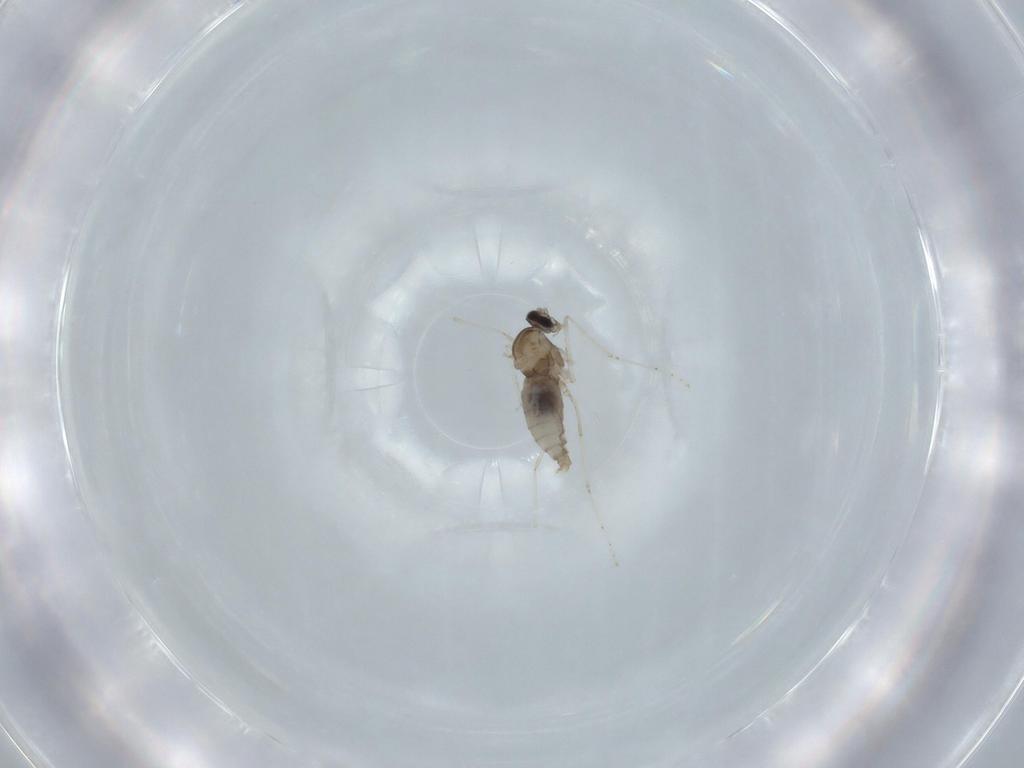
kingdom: Animalia
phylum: Arthropoda
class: Insecta
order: Diptera
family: Cecidomyiidae
